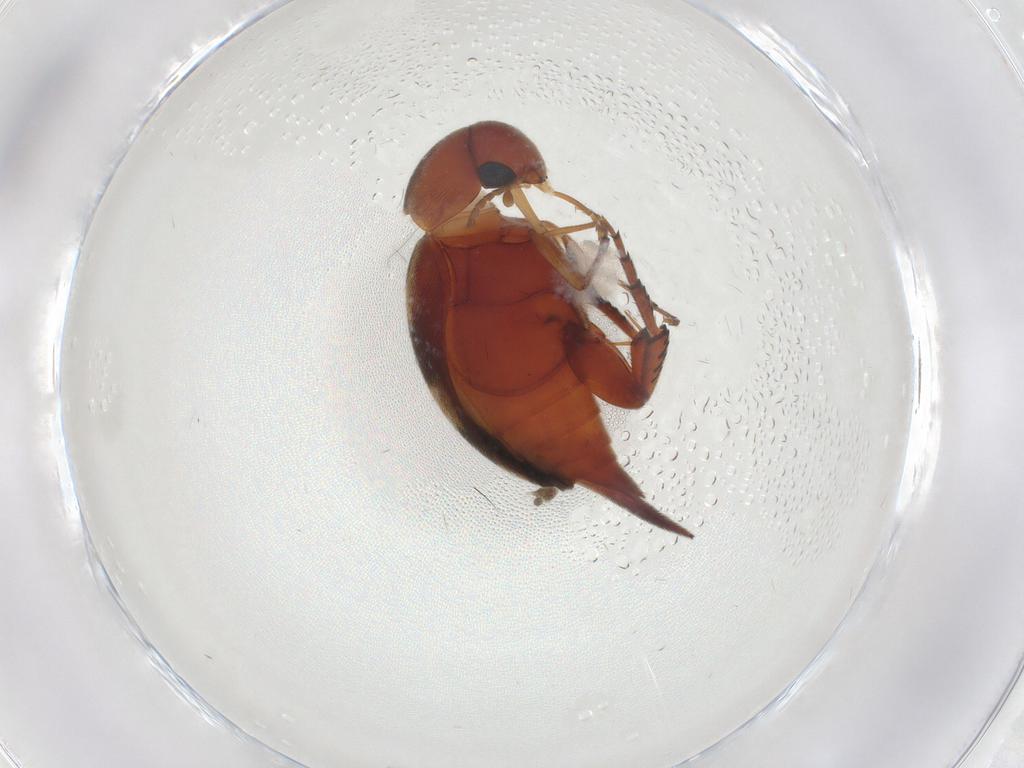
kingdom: Animalia
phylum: Arthropoda
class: Insecta
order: Coleoptera
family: Mordellidae
